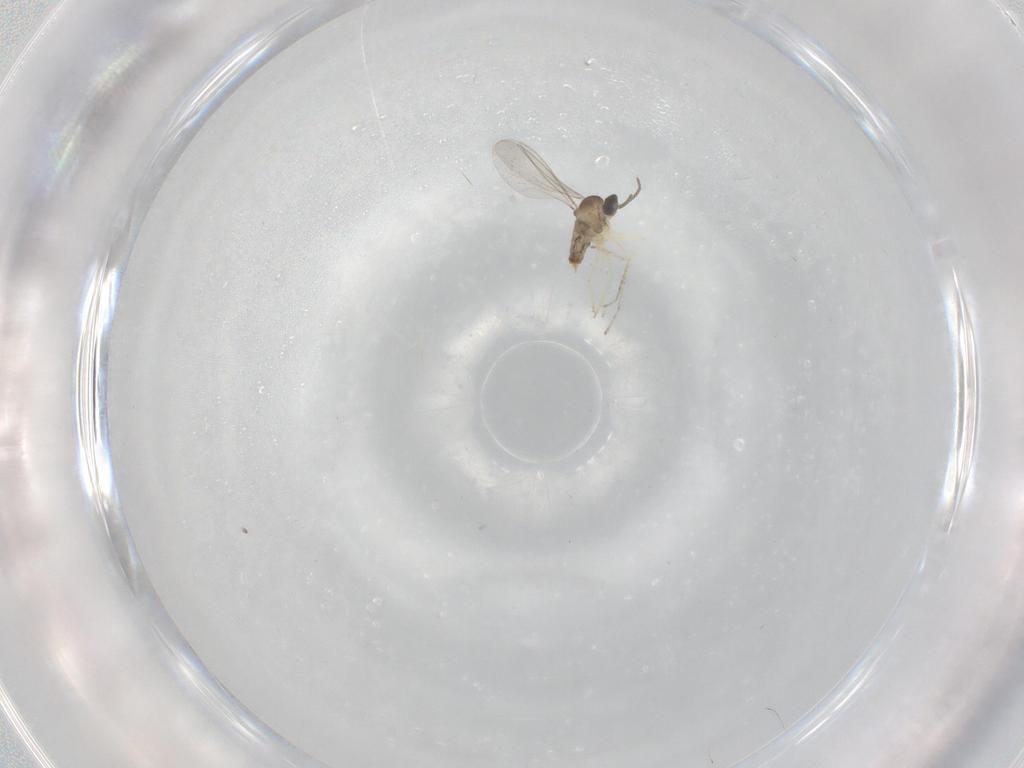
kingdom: Animalia
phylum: Arthropoda
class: Insecta
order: Diptera
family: Cecidomyiidae
